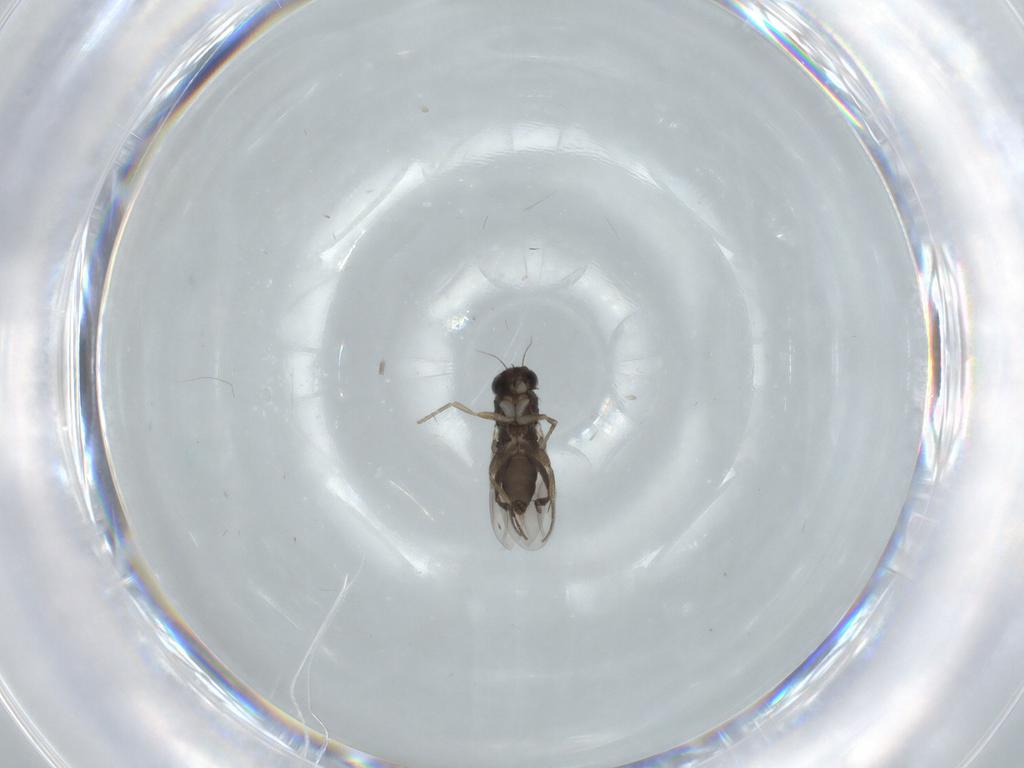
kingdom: Animalia
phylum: Arthropoda
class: Insecta
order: Diptera
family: Phoridae
